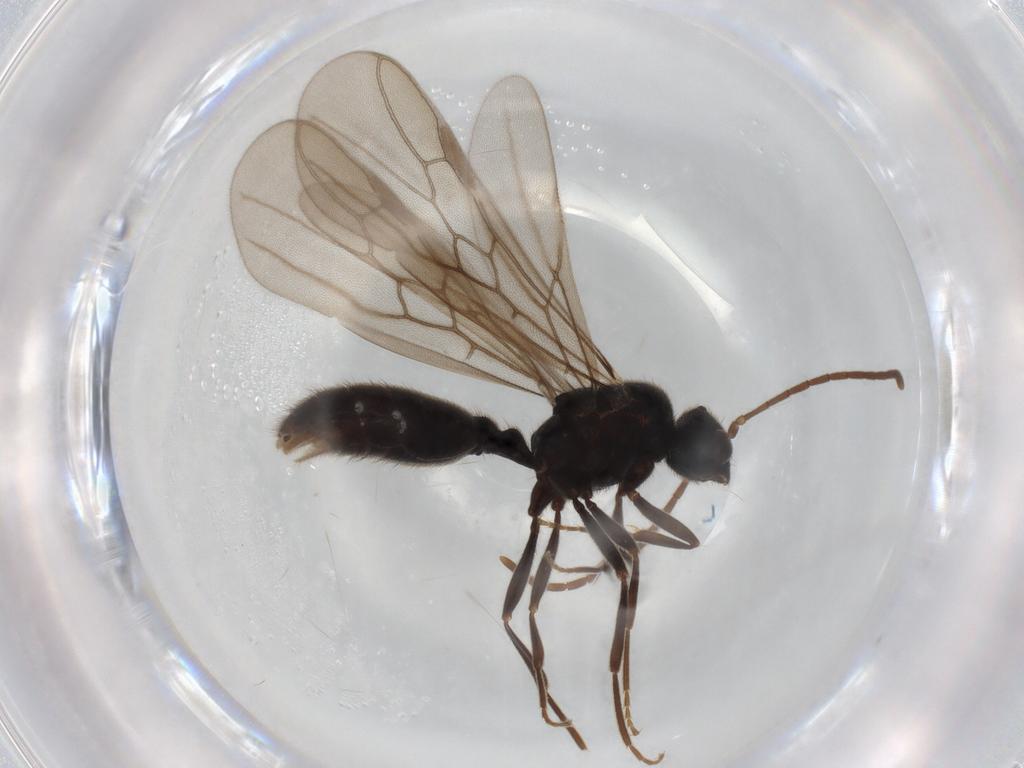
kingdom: Animalia
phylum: Arthropoda
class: Insecta
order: Hymenoptera
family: Formicidae
